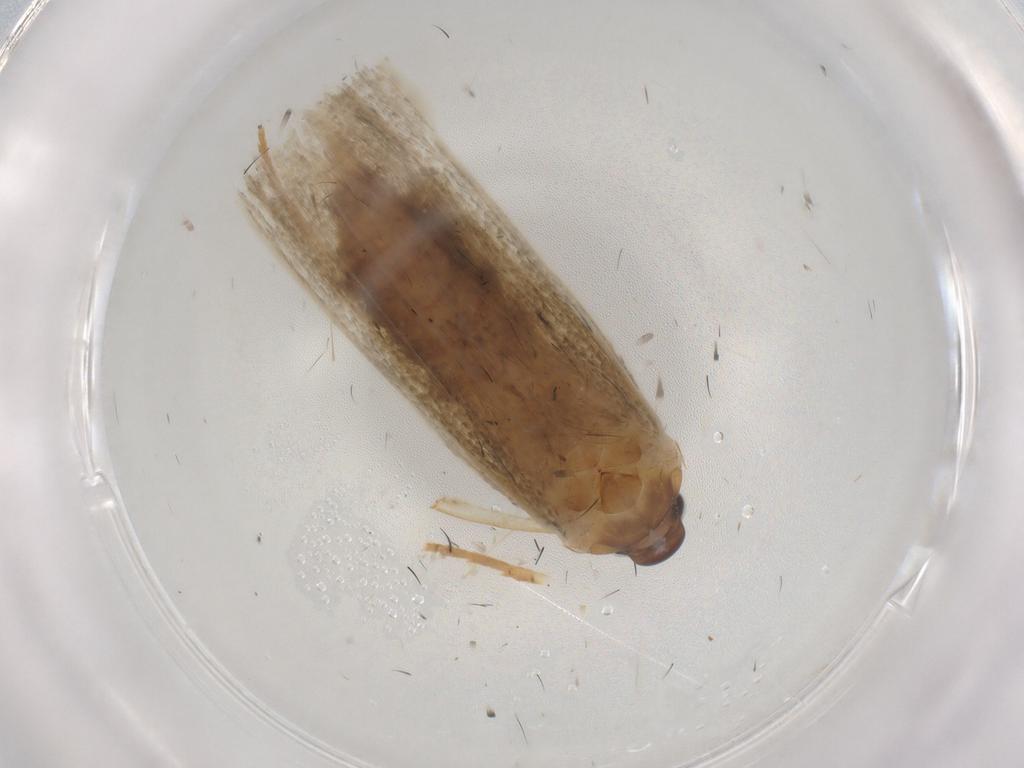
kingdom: Animalia
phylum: Arthropoda
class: Insecta
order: Lepidoptera
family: Blastobasidae
